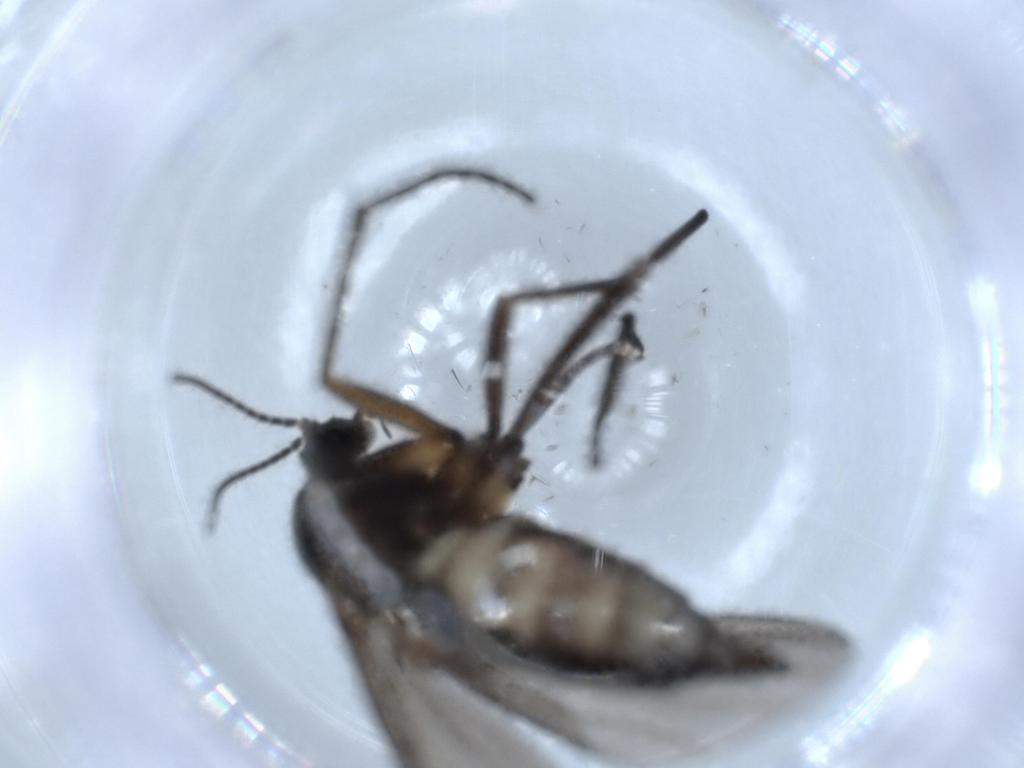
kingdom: Animalia
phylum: Arthropoda
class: Insecta
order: Diptera
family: Sciaridae
